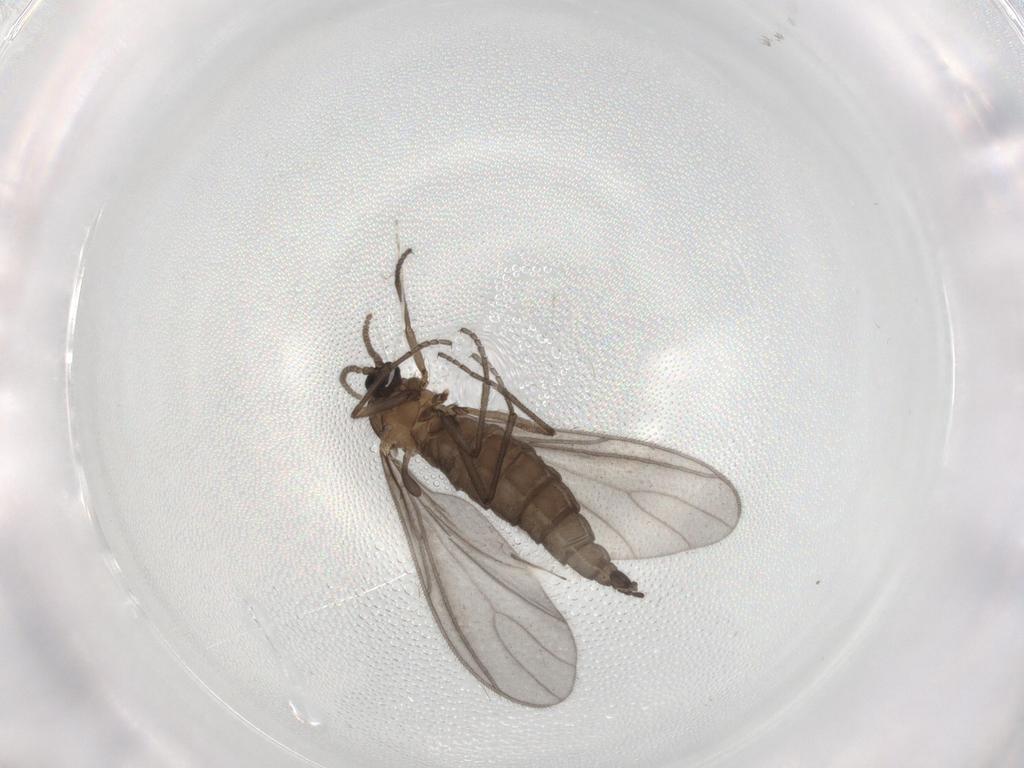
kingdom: Animalia
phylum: Arthropoda
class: Insecta
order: Diptera
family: Sciaridae
